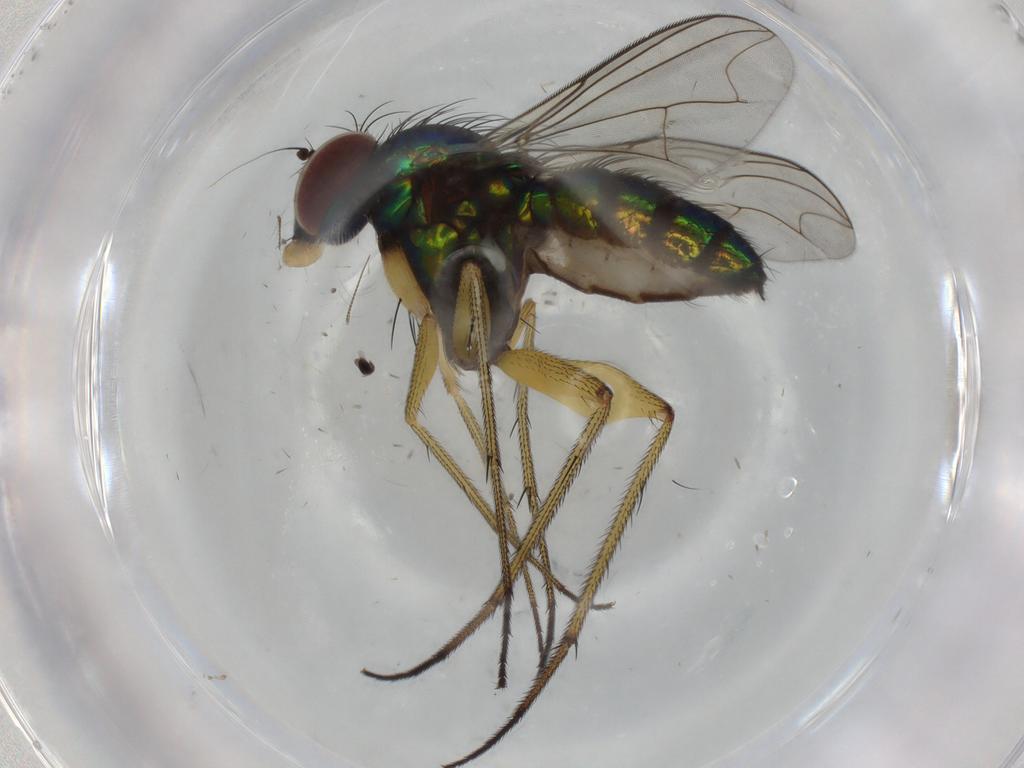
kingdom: Animalia
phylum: Arthropoda
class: Insecta
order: Diptera
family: Dolichopodidae
